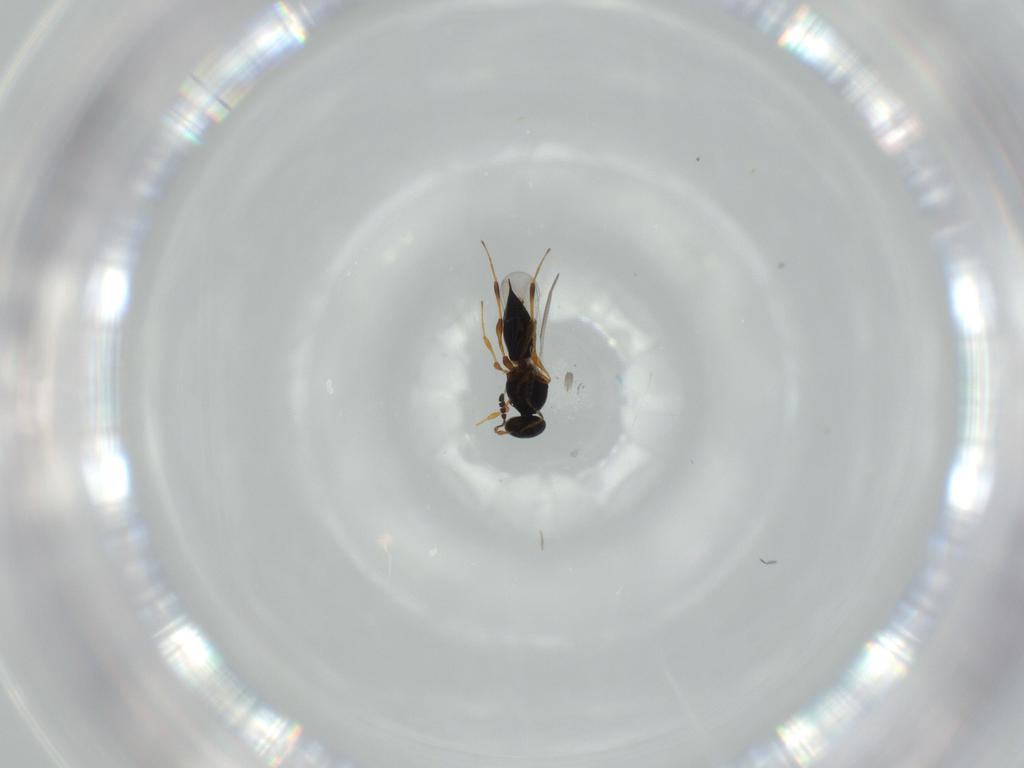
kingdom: Animalia
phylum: Arthropoda
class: Insecta
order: Hymenoptera
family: Platygastridae
